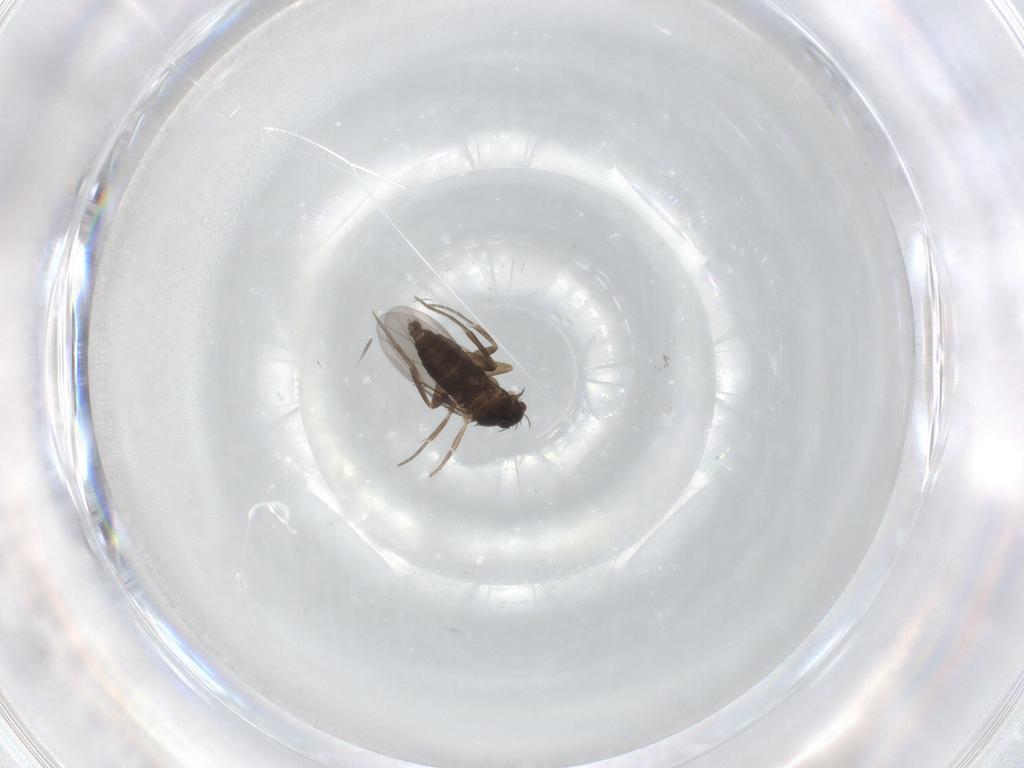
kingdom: Animalia
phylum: Arthropoda
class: Insecta
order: Diptera
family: Phoridae
